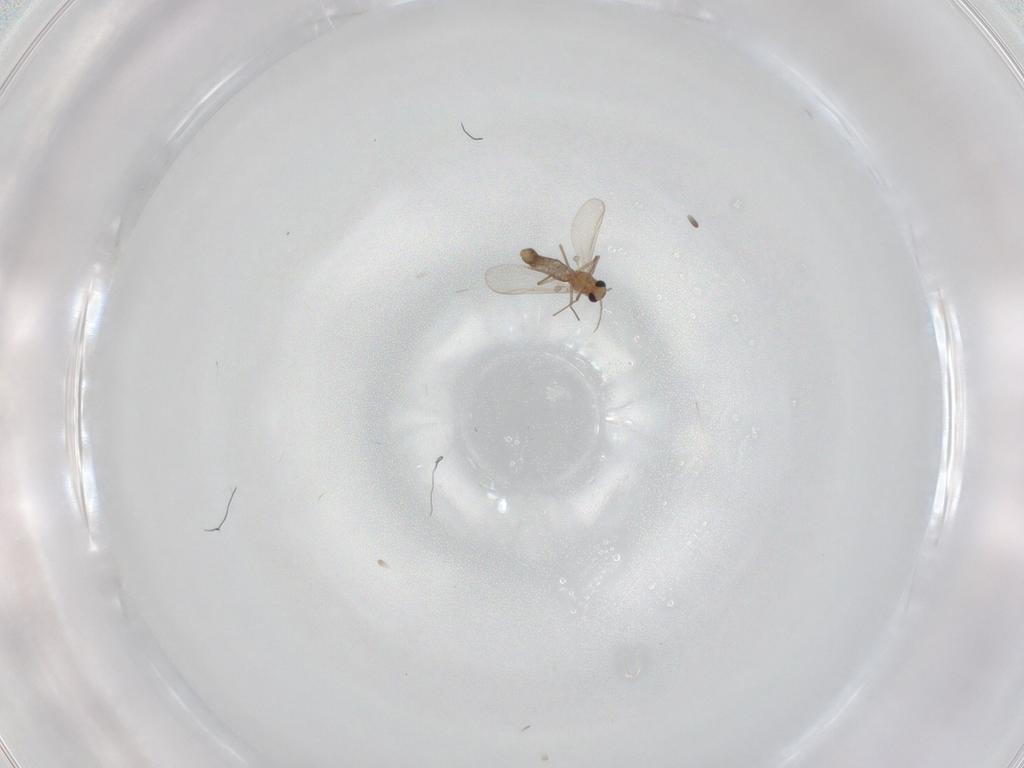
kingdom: Animalia
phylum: Arthropoda
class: Insecta
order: Diptera
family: Chironomidae
